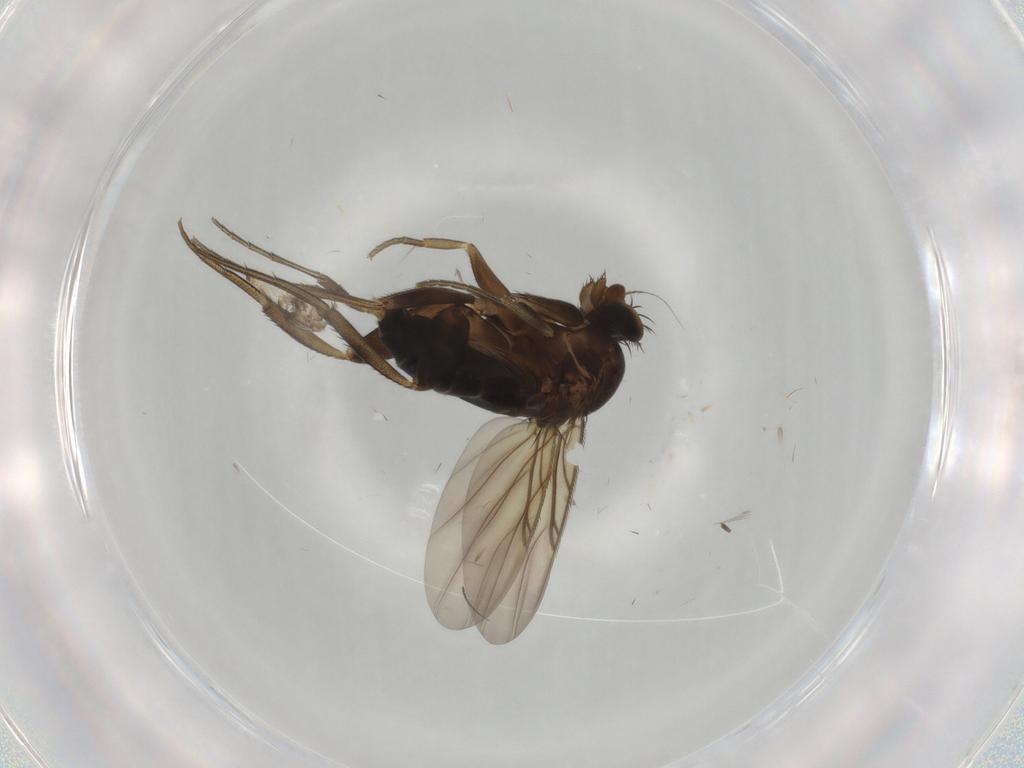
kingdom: Animalia
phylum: Arthropoda
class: Insecta
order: Diptera
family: Phoridae
